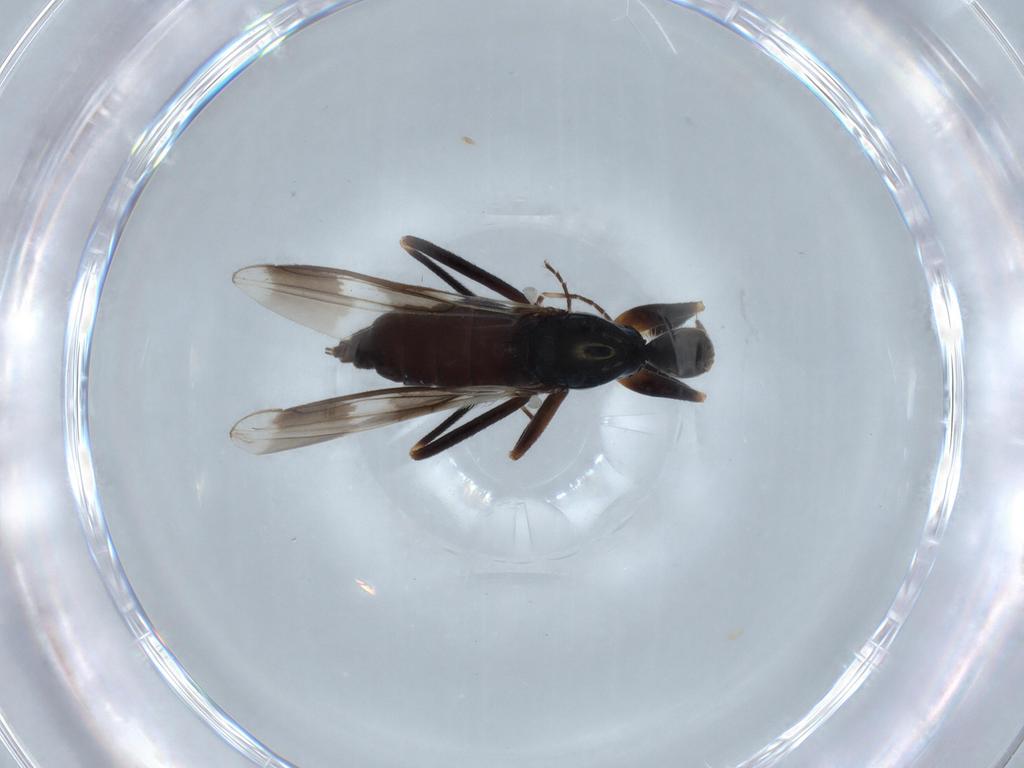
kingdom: Animalia
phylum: Arthropoda
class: Insecta
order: Diptera
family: Hybotidae
